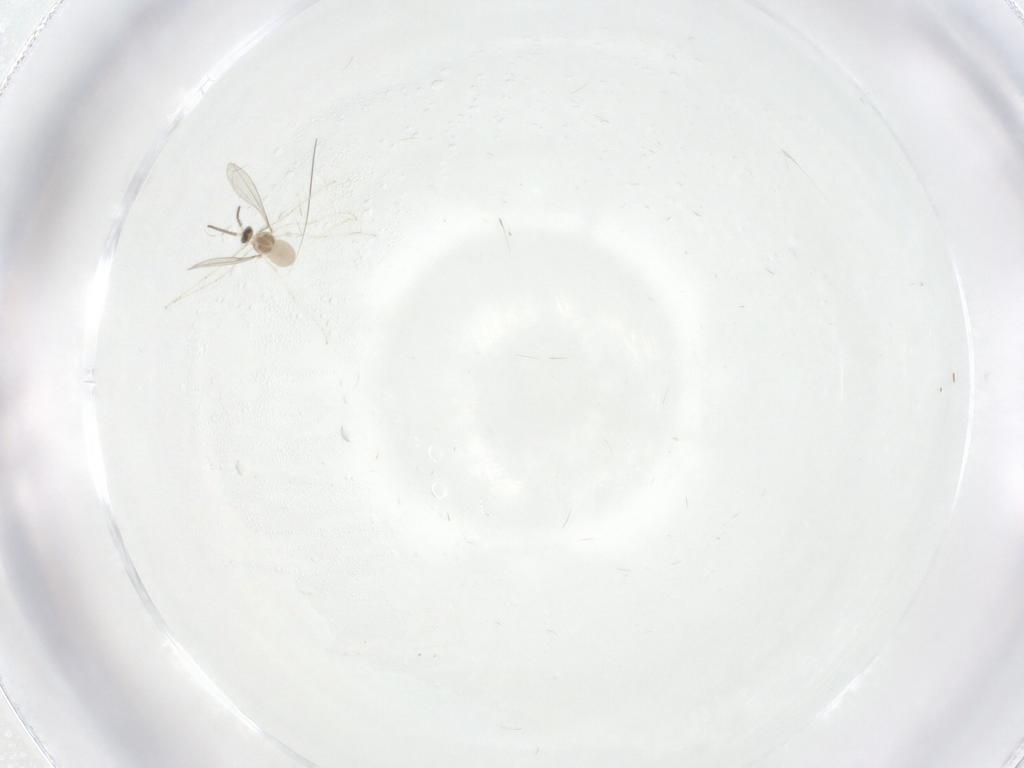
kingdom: Animalia
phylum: Arthropoda
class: Insecta
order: Diptera
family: Cecidomyiidae
